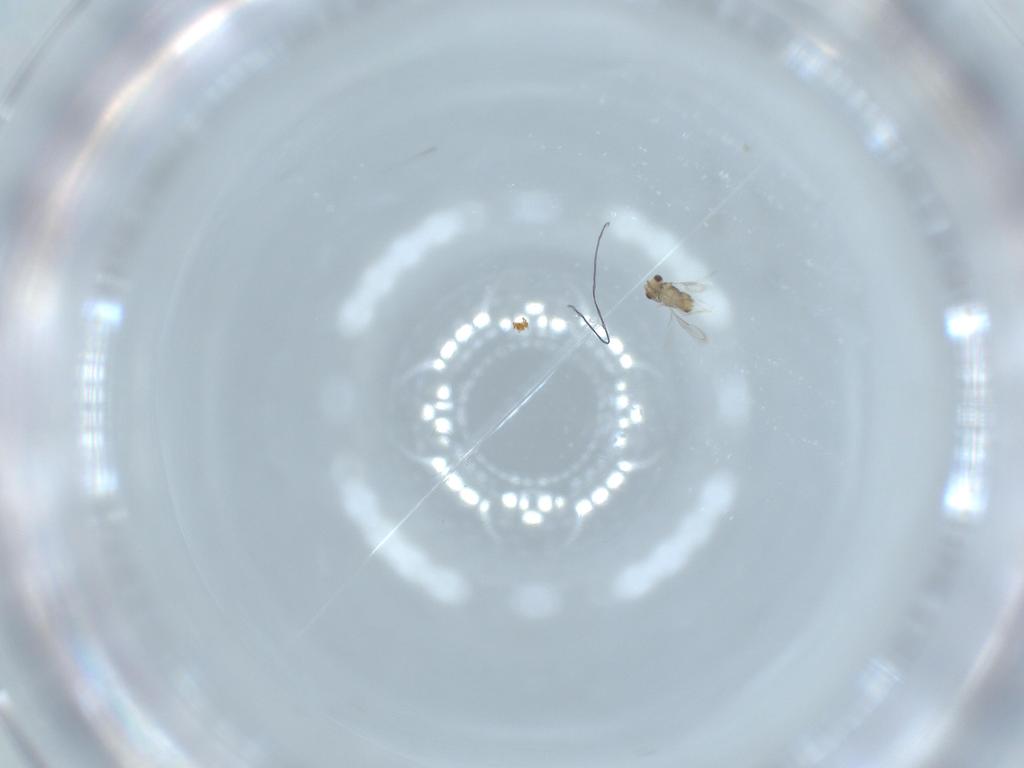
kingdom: Animalia
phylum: Arthropoda
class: Insecta
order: Hymenoptera
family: Aphelinidae
